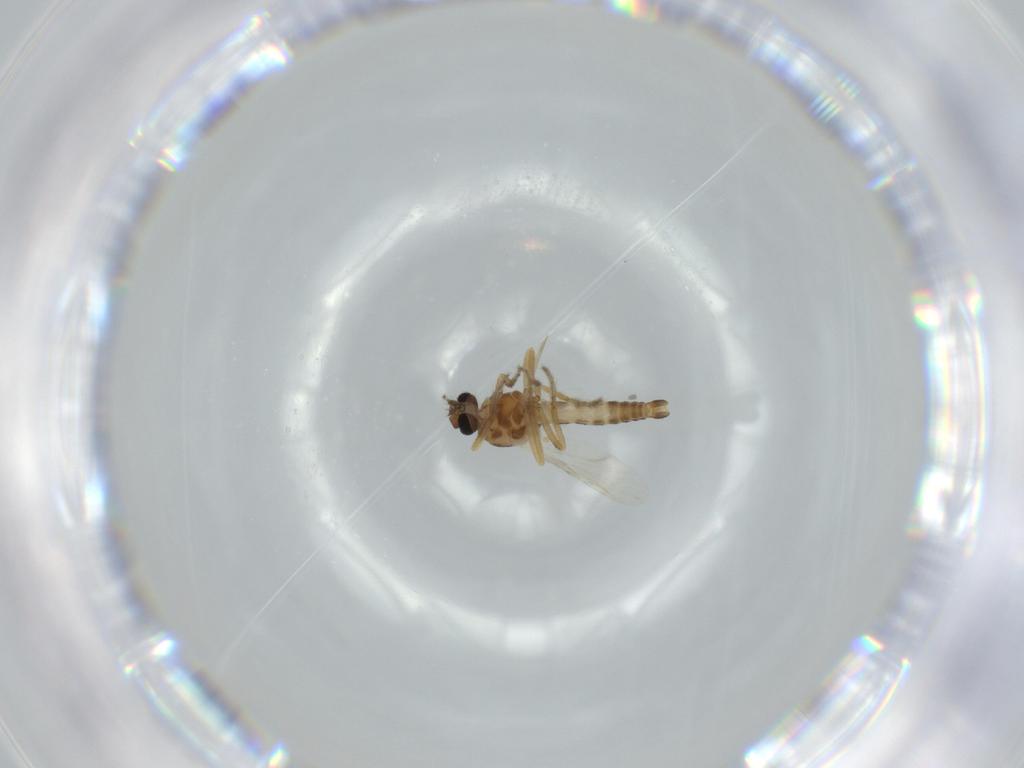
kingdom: Animalia
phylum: Arthropoda
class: Insecta
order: Diptera
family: Ceratopogonidae
